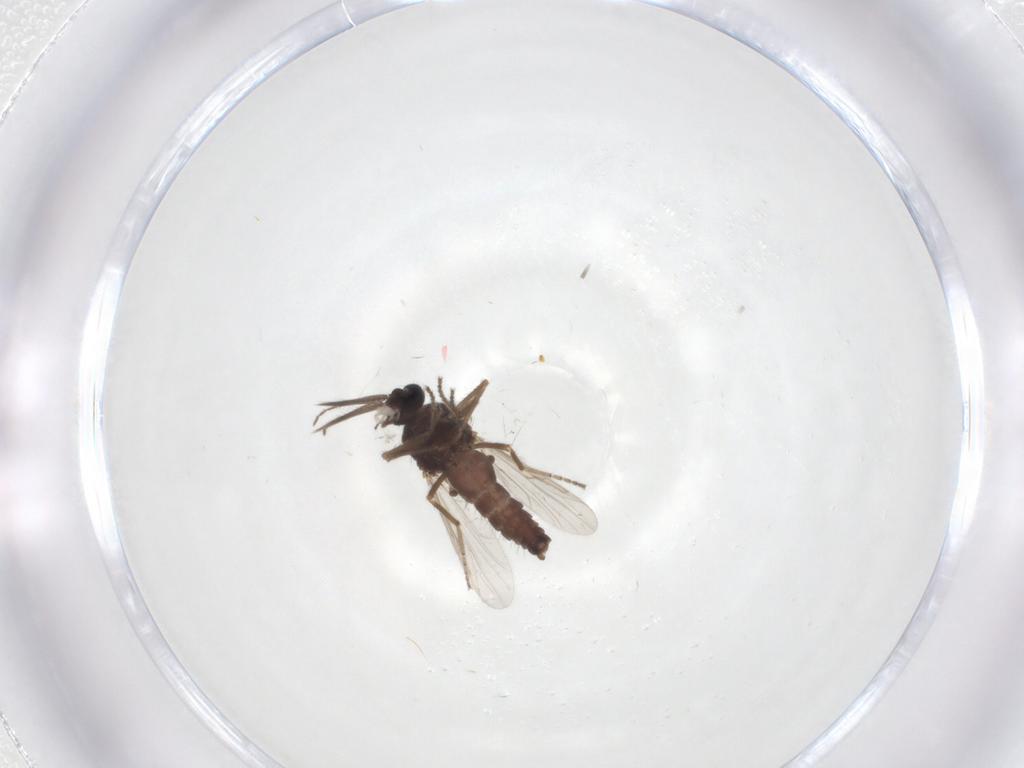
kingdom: Animalia
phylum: Arthropoda
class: Insecta
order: Diptera
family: Ceratopogonidae
